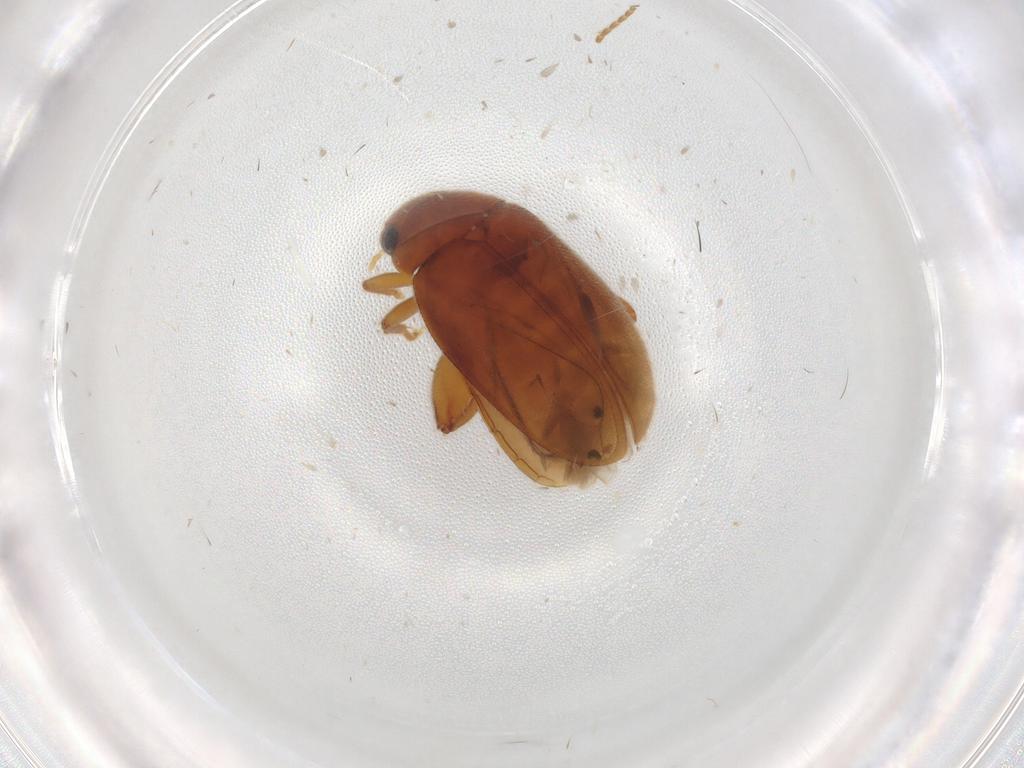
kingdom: Animalia
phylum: Arthropoda
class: Insecta
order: Coleoptera
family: Scirtidae
